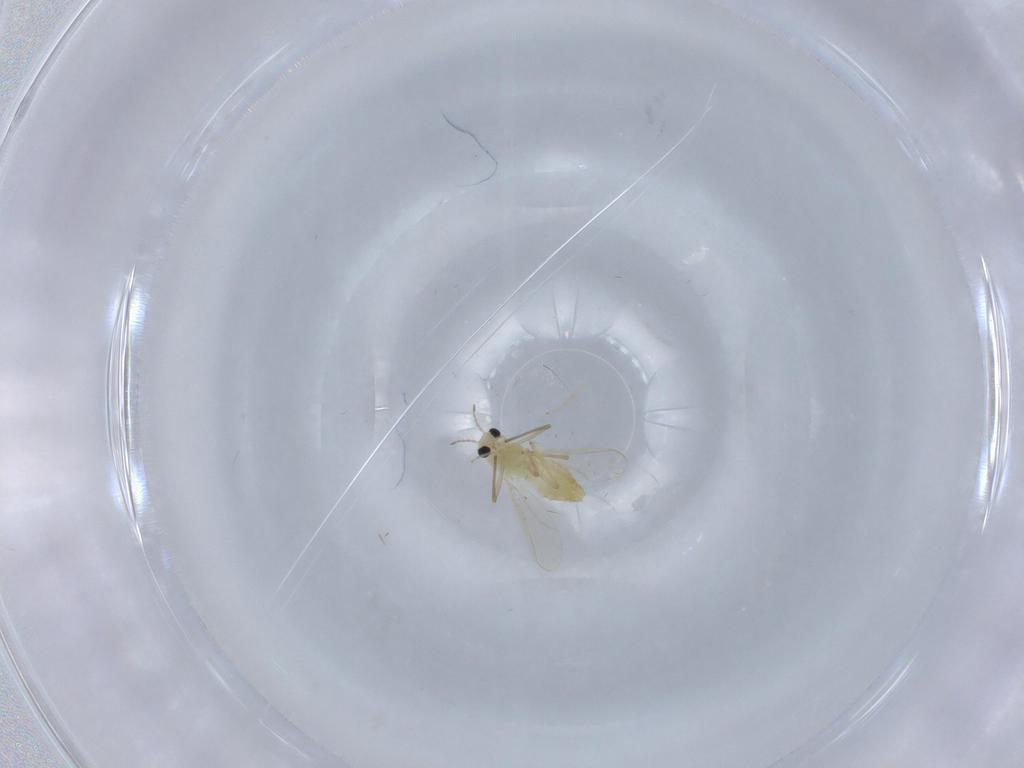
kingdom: Animalia
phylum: Arthropoda
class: Insecta
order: Diptera
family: Chironomidae
